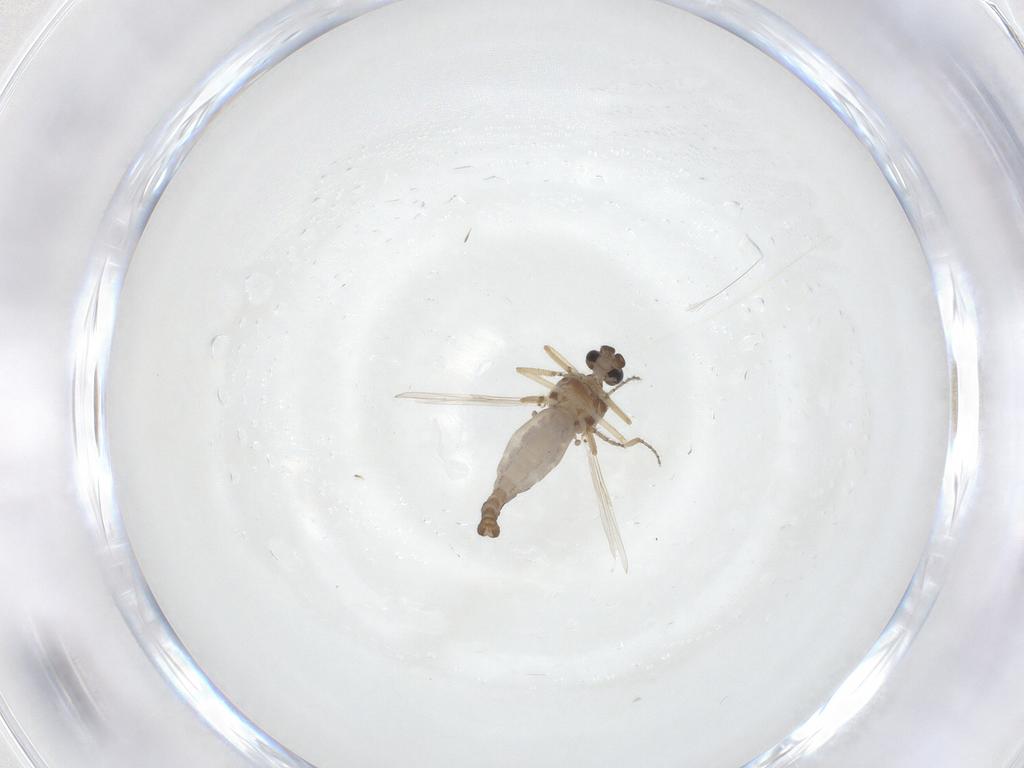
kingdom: Animalia
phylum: Arthropoda
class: Insecta
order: Diptera
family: Ceratopogonidae
